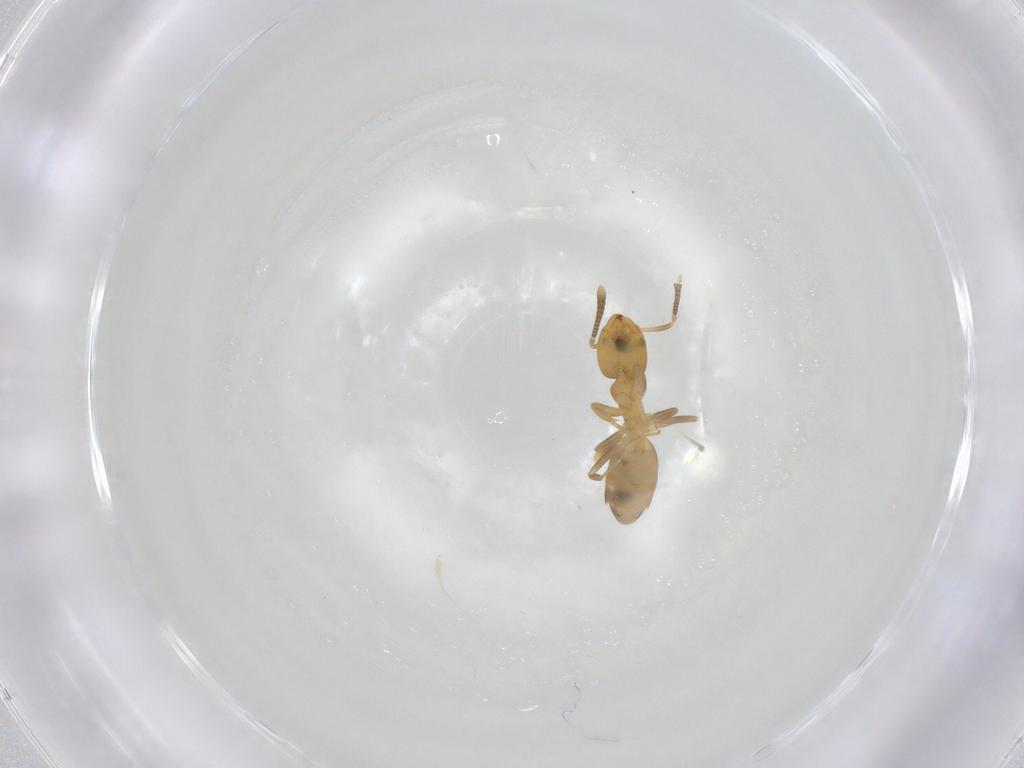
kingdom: Animalia
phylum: Arthropoda
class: Insecta
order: Hymenoptera
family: Formicidae
